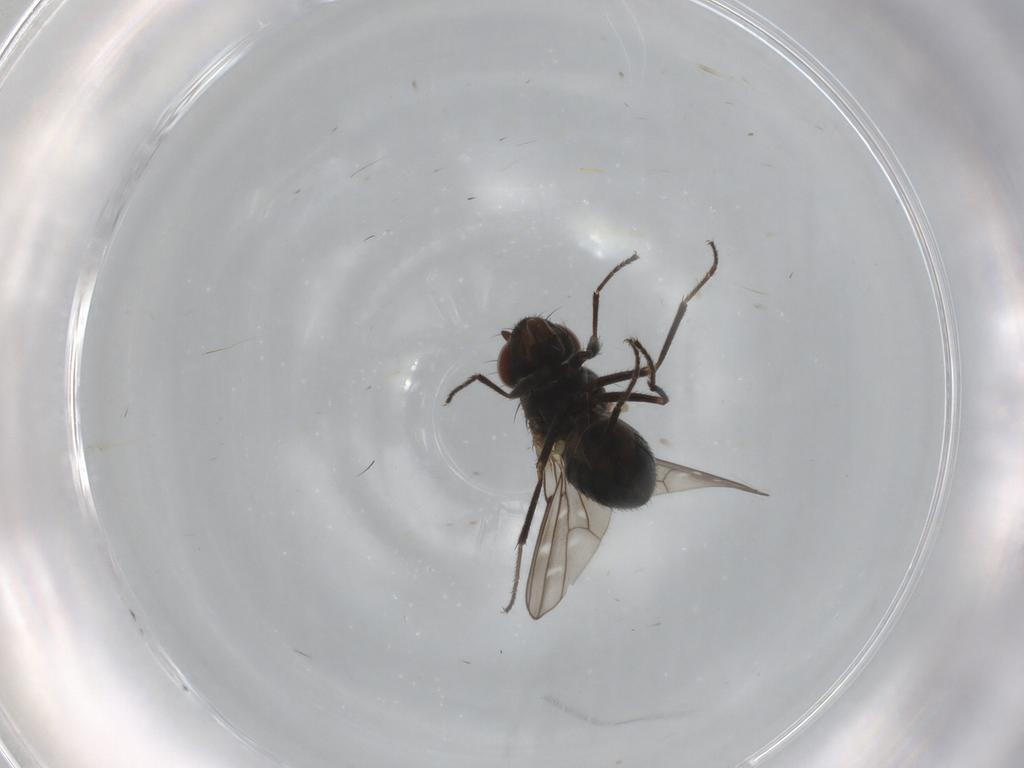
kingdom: Animalia
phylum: Arthropoda
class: Insecta
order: Diptera
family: Ephydridae
